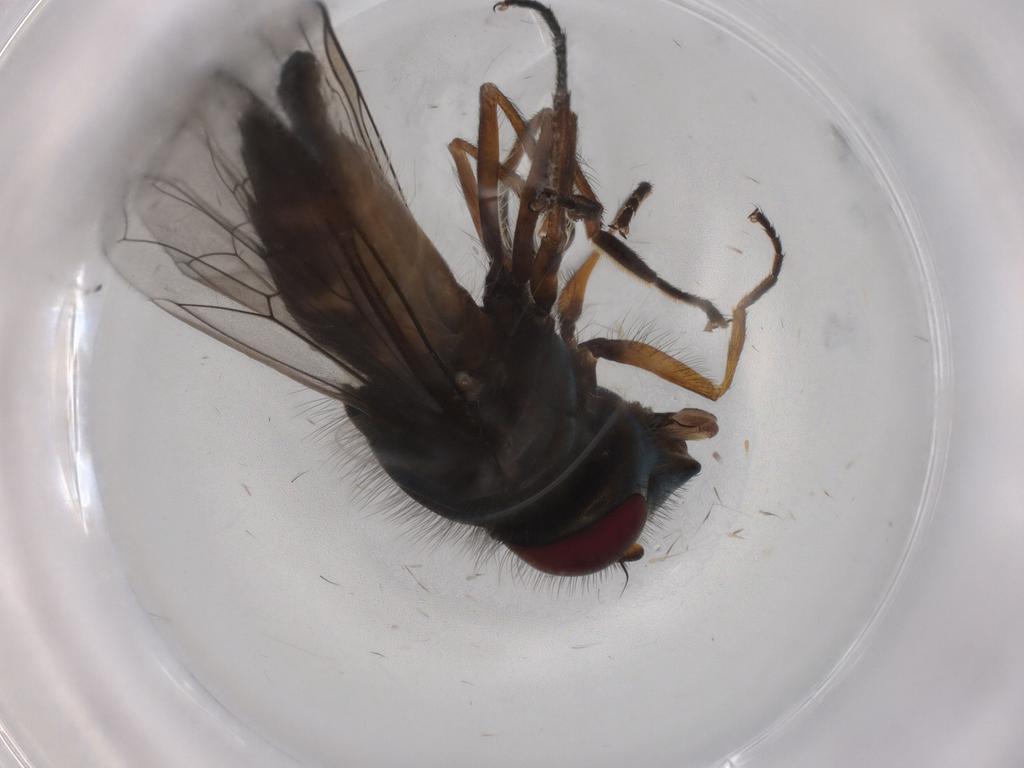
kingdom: Animalia
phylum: Arthropoda
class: Insecta
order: Diptera
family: Syrphidae
